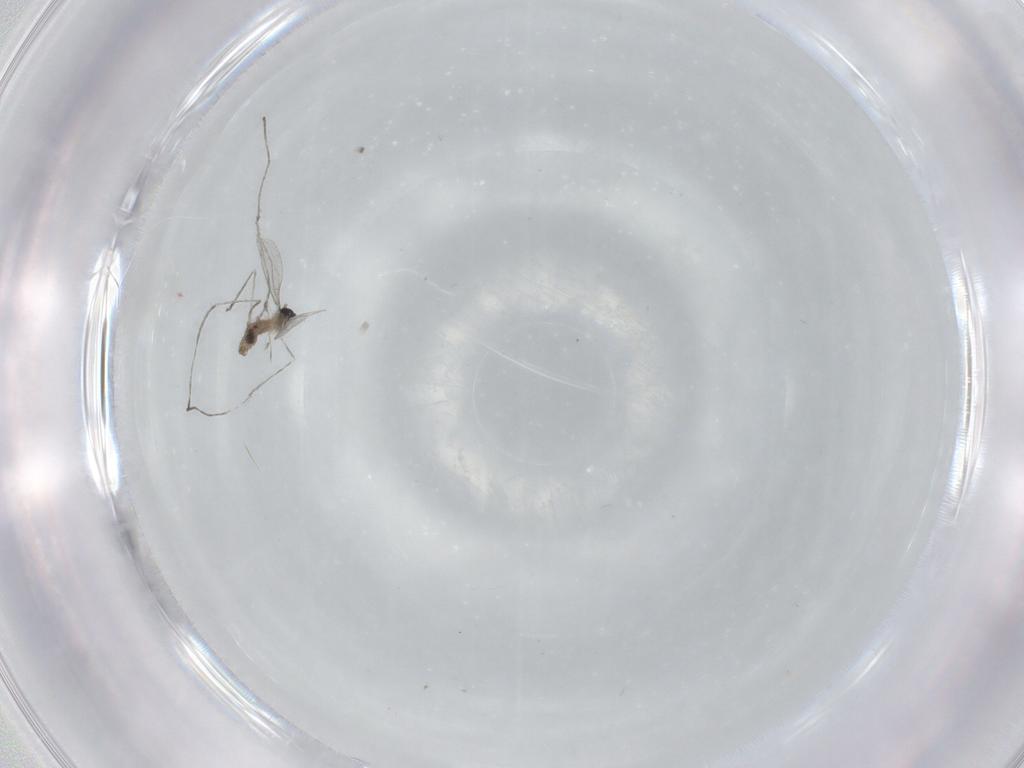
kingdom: Animalia
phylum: Arthropoda
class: Insecta
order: Diptera
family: Cecidomyiidae
